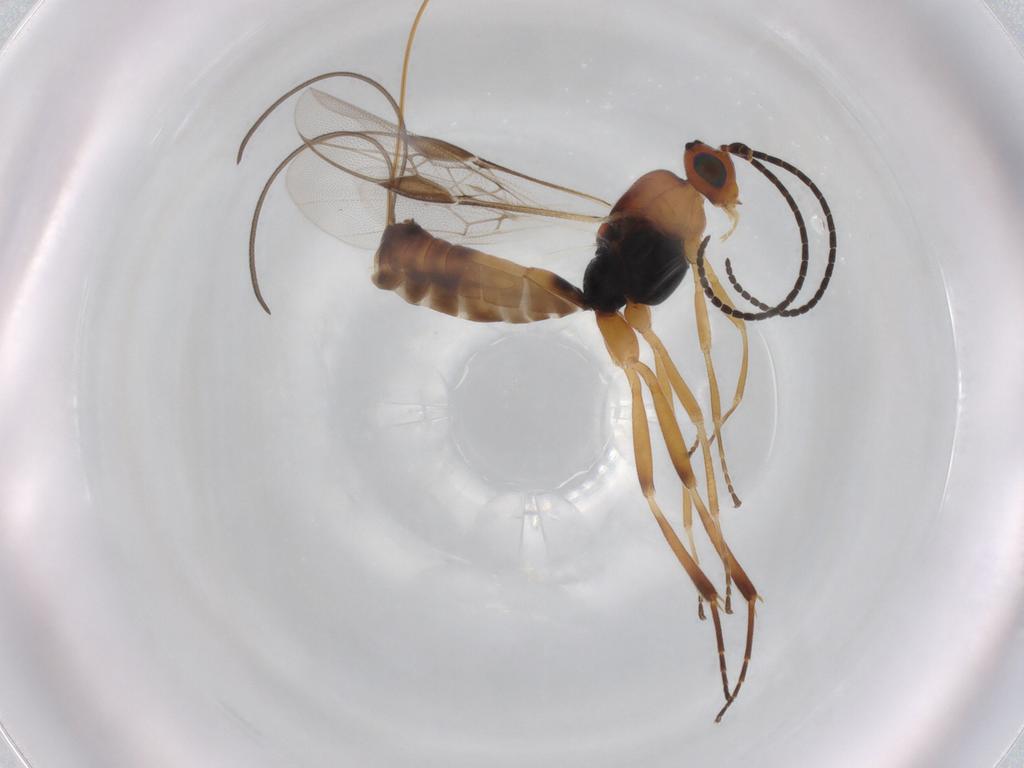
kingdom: Animalia
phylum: Arthropoda
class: Insecta
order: Hymenoptera
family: Braconidae
